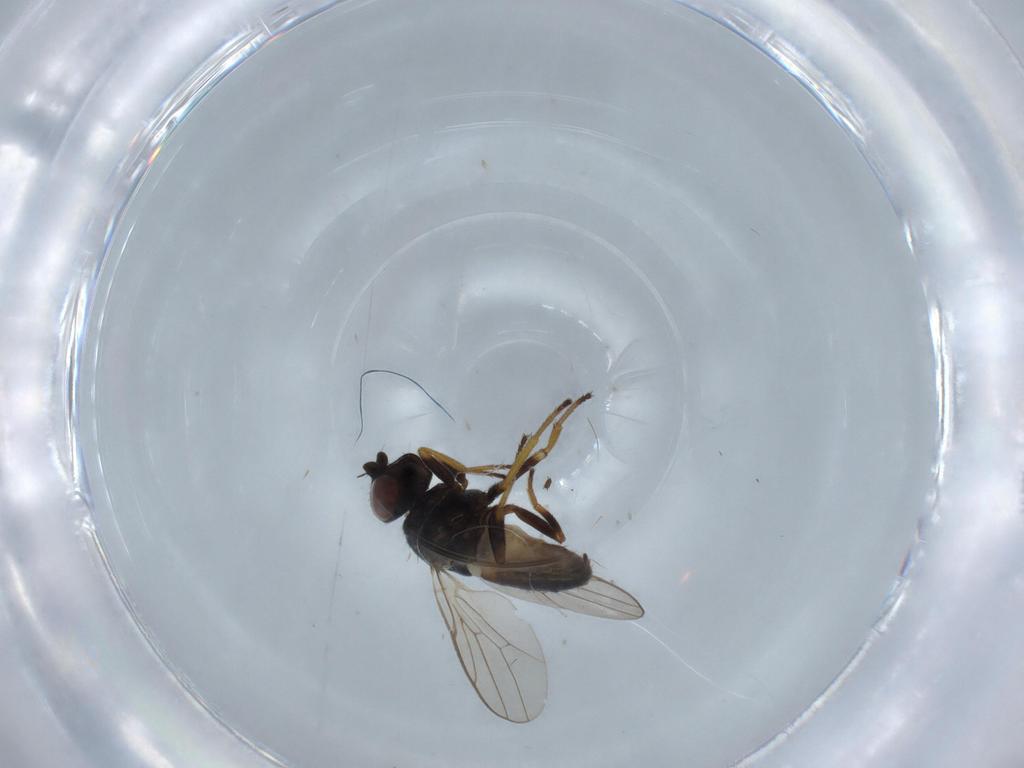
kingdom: Animalia
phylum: Arthropoda
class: Insecta
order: Diptera
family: Chloropidae
